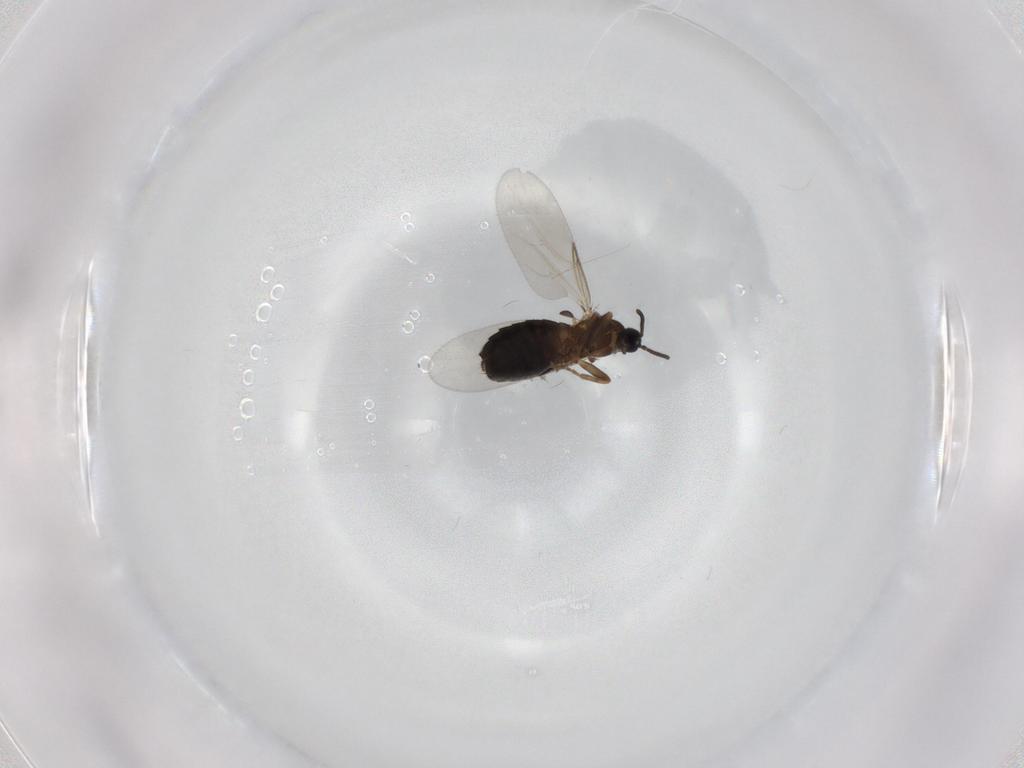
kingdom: Animalia
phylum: Arthropoda
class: Insecta
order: Diptera
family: Scatopsidae
